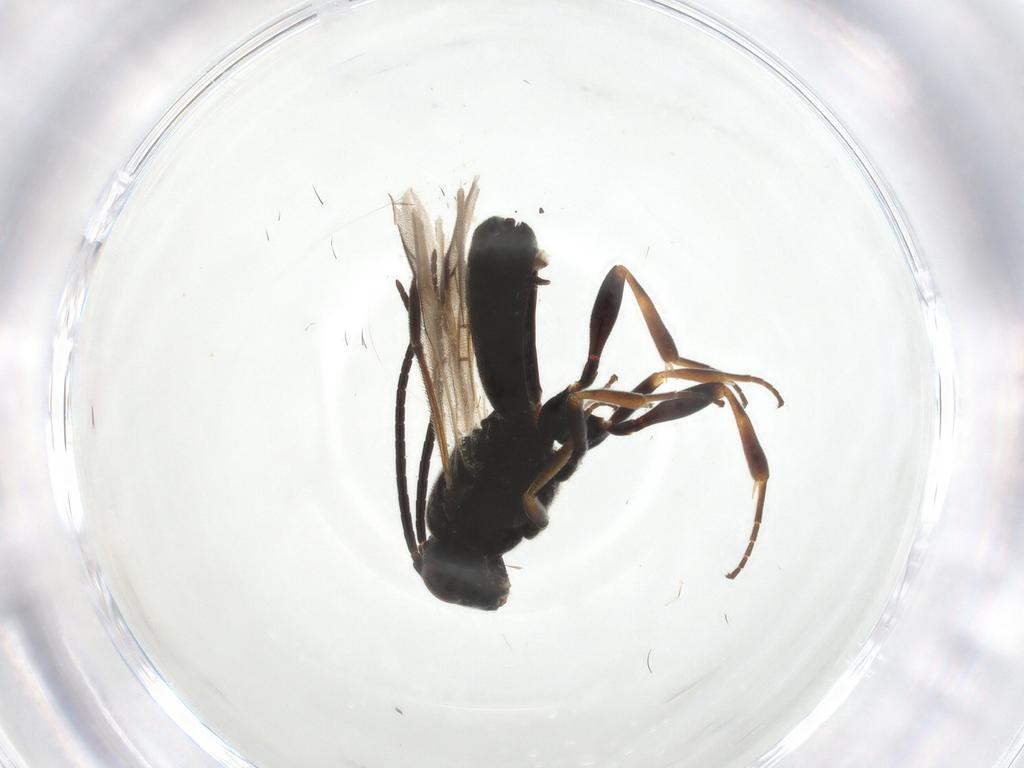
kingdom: Animalia
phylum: Arthropoda
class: Insecta
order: Hymenoptera
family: Braconidae
